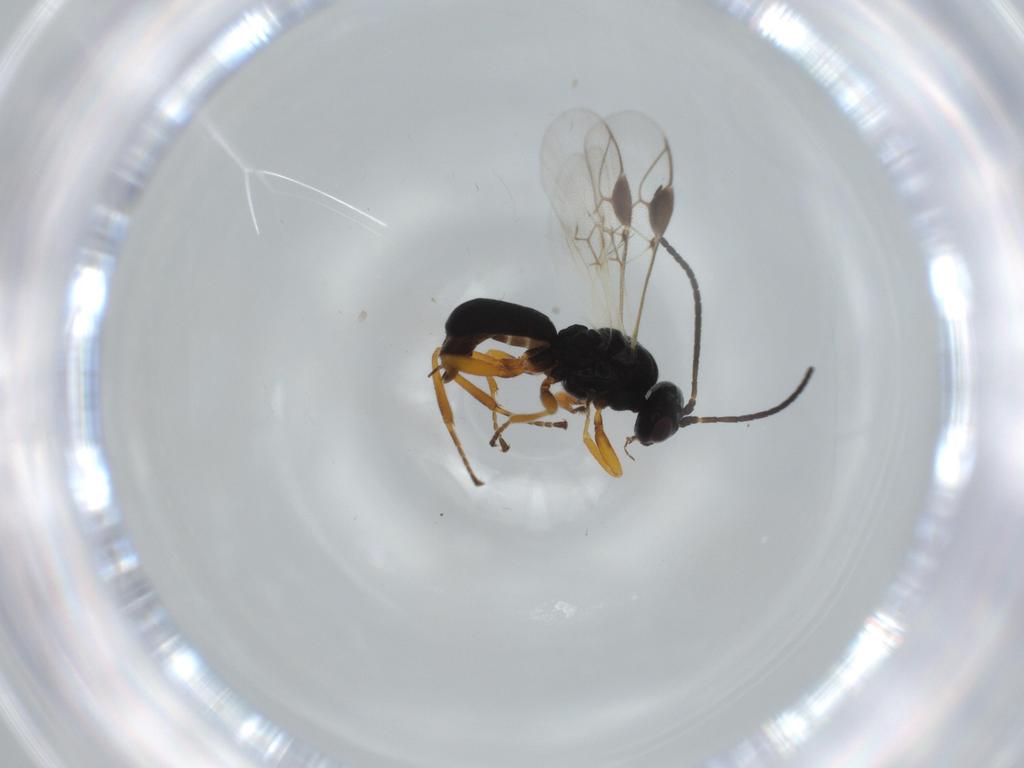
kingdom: Animalia
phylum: Arthropoda
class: Insecta
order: Hymenoptera
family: Braconidae
